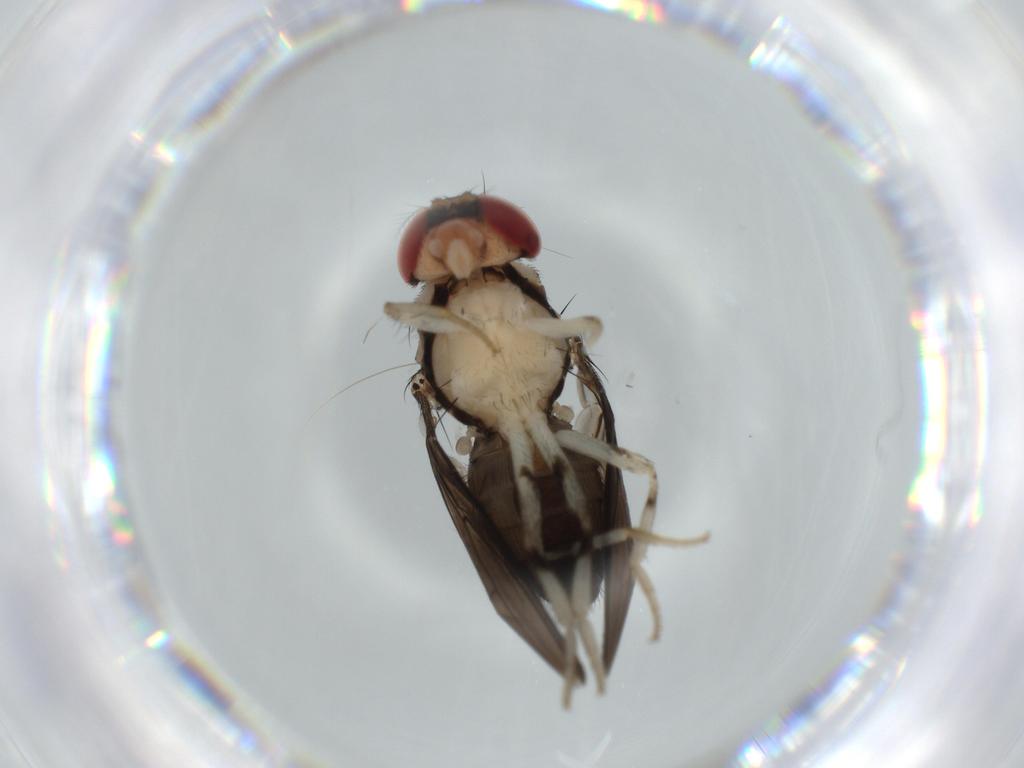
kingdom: Animalia
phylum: Arthropoda
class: Insecta
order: Diptera
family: Drosophilidae
